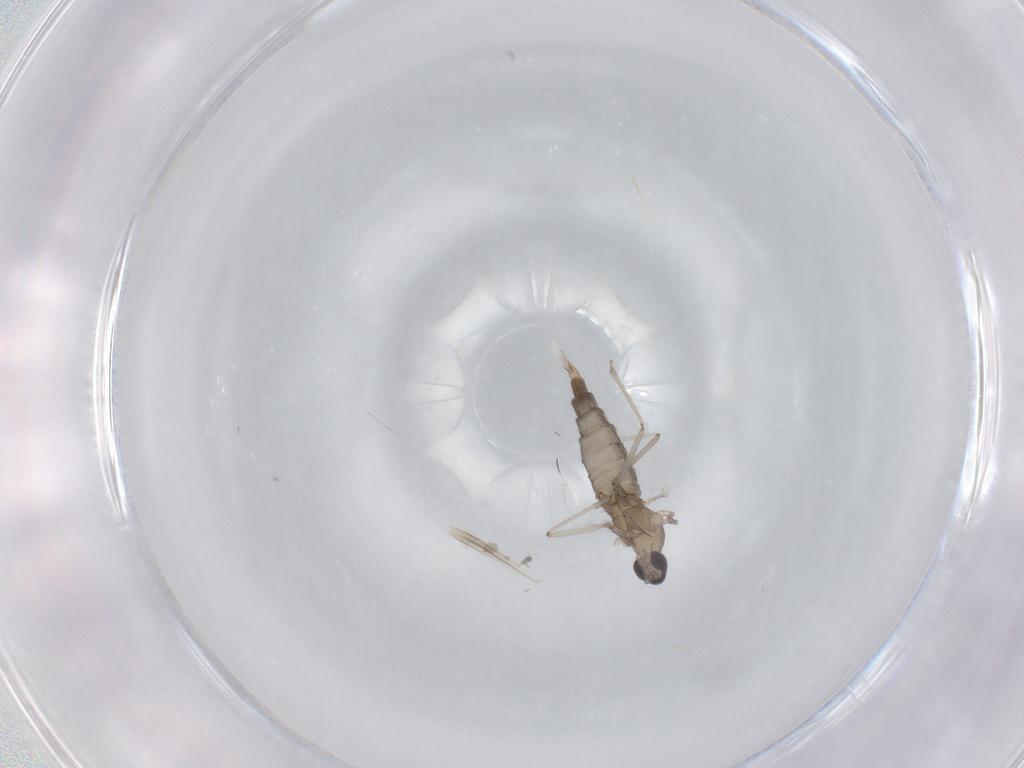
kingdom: Animalia
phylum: Arthropoda
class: Insecta
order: Diptera
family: Cecidomyiidae
